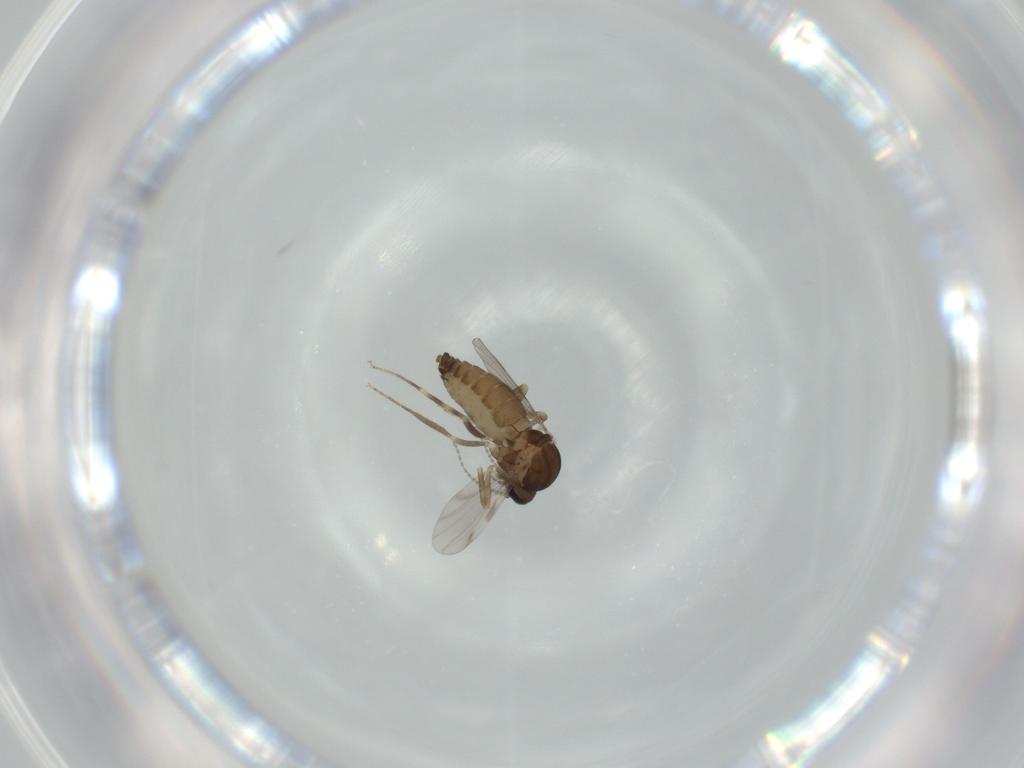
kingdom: Animalia
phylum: Arthropoda
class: Insecta
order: Diptera
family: Ceratopogonidae
